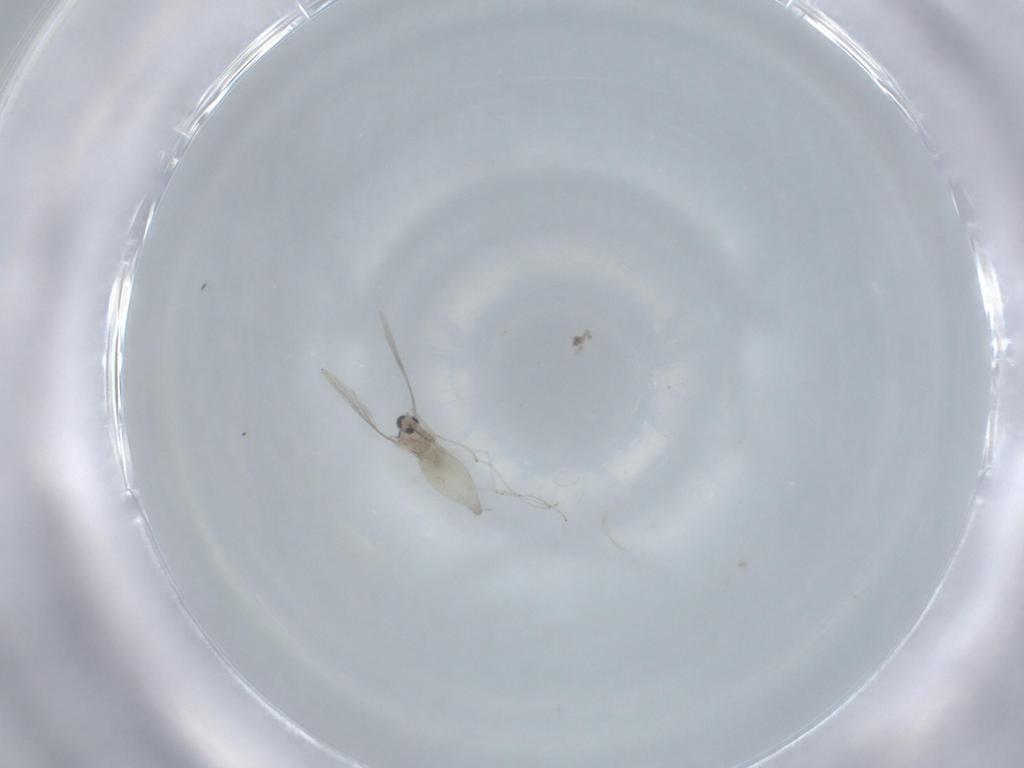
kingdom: Animalia
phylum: Arthropoda
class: Insecta
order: Diptera
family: Cecidomyiidae
